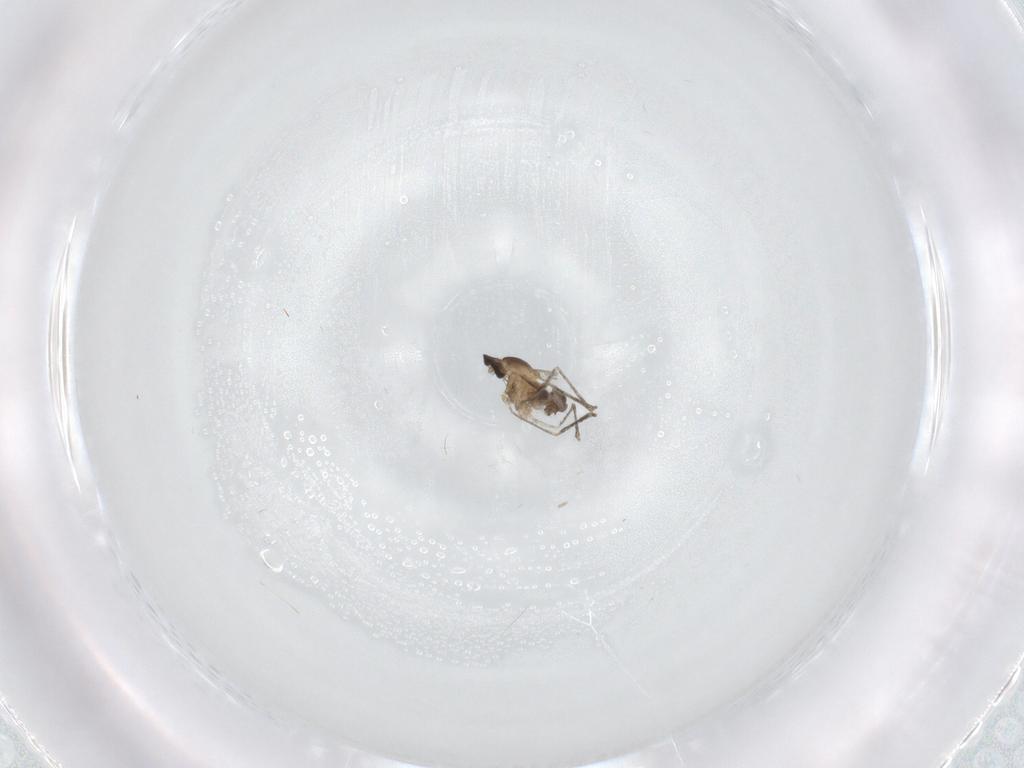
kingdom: Animalia
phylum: Arthropoda
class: Insecta
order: Diptera
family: Cecidomyiidae
